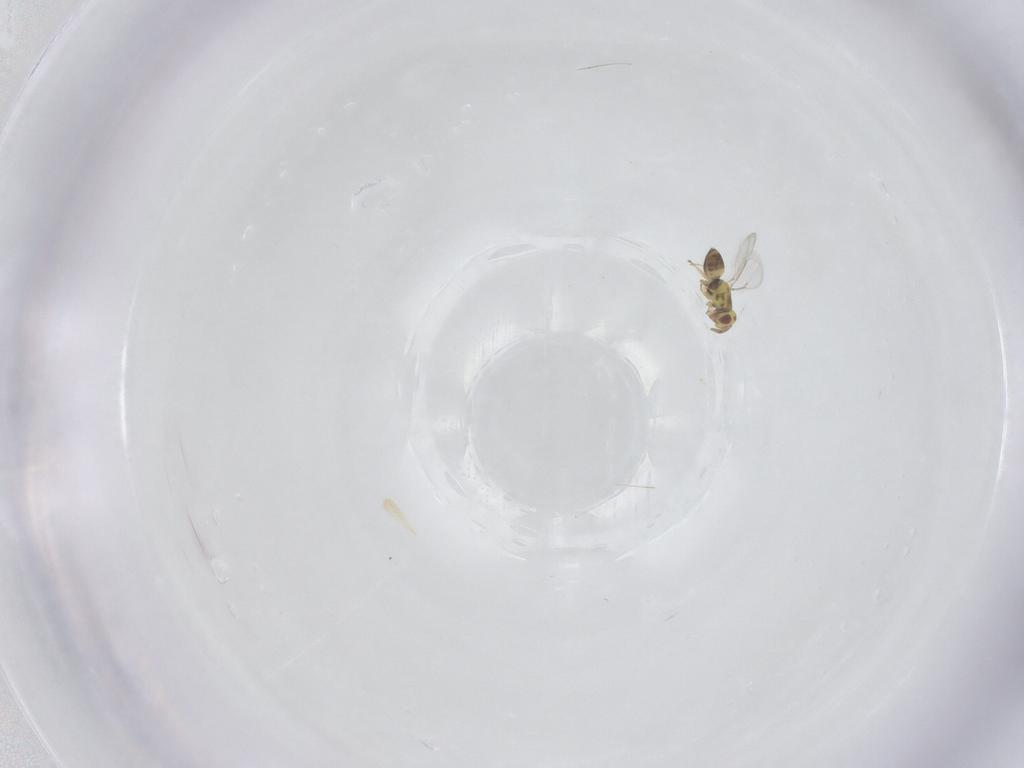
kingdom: Animalia
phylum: Arthropoda
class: Insecta
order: Hymenoptera
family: Eulophidae
